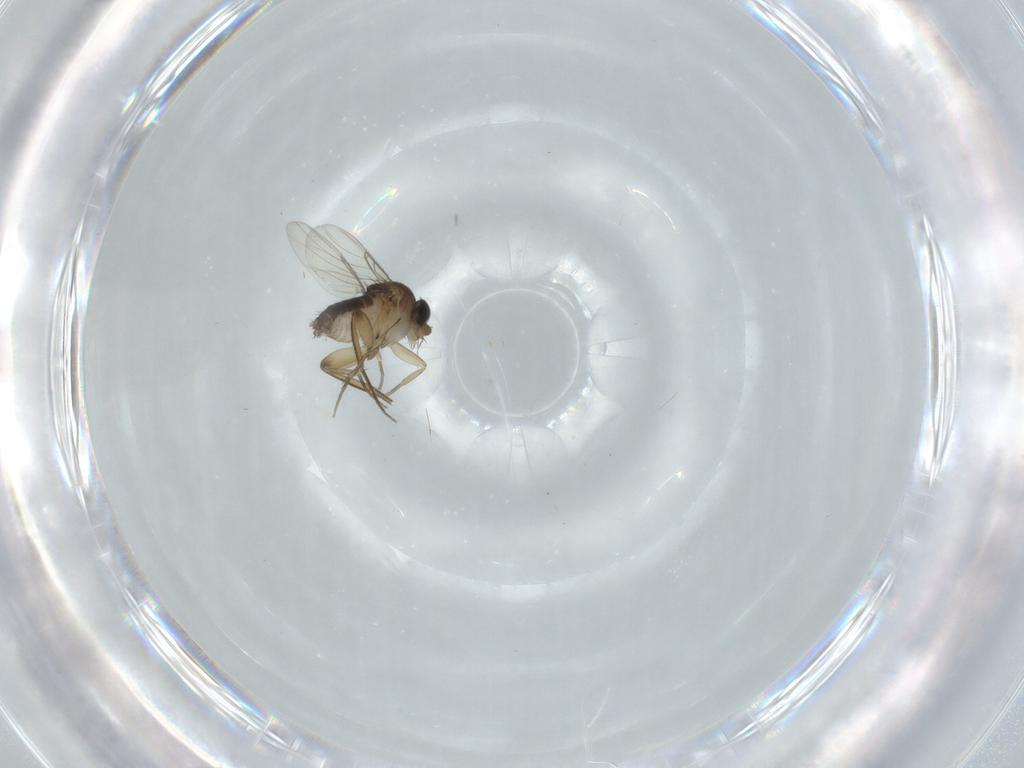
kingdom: Animalia
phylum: Arthropoda
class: Insecta
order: Diptera
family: Phoridae
